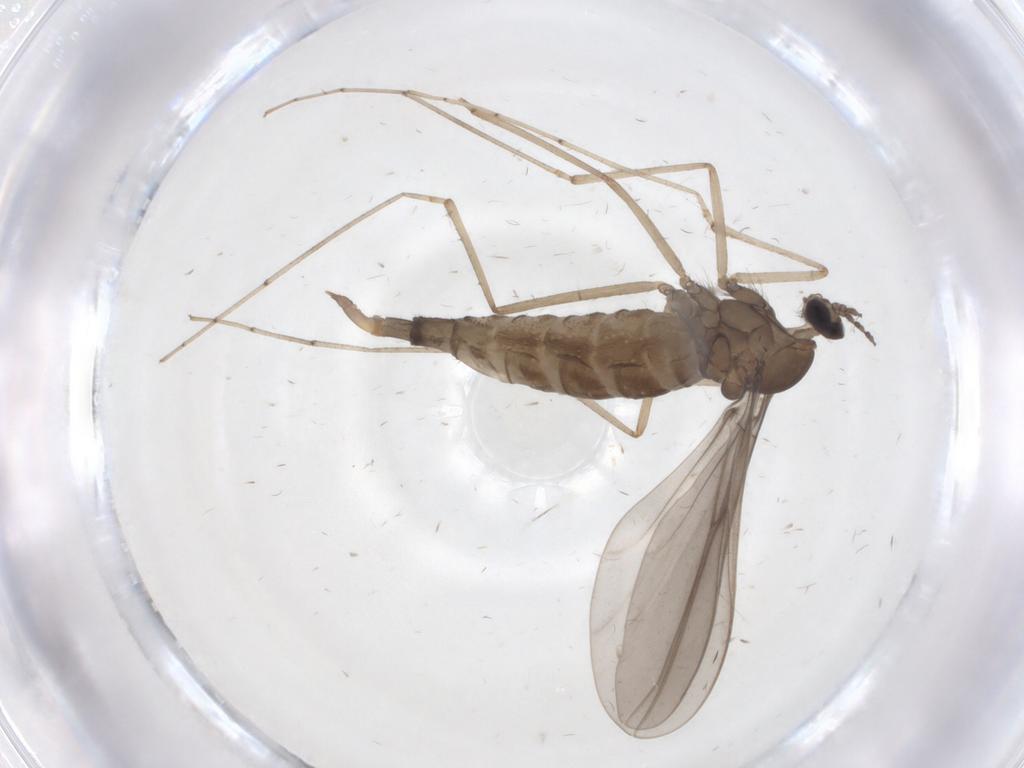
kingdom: Animalia
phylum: Arthropoda
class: Insecta
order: Diptera
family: Cecidomyiidae
